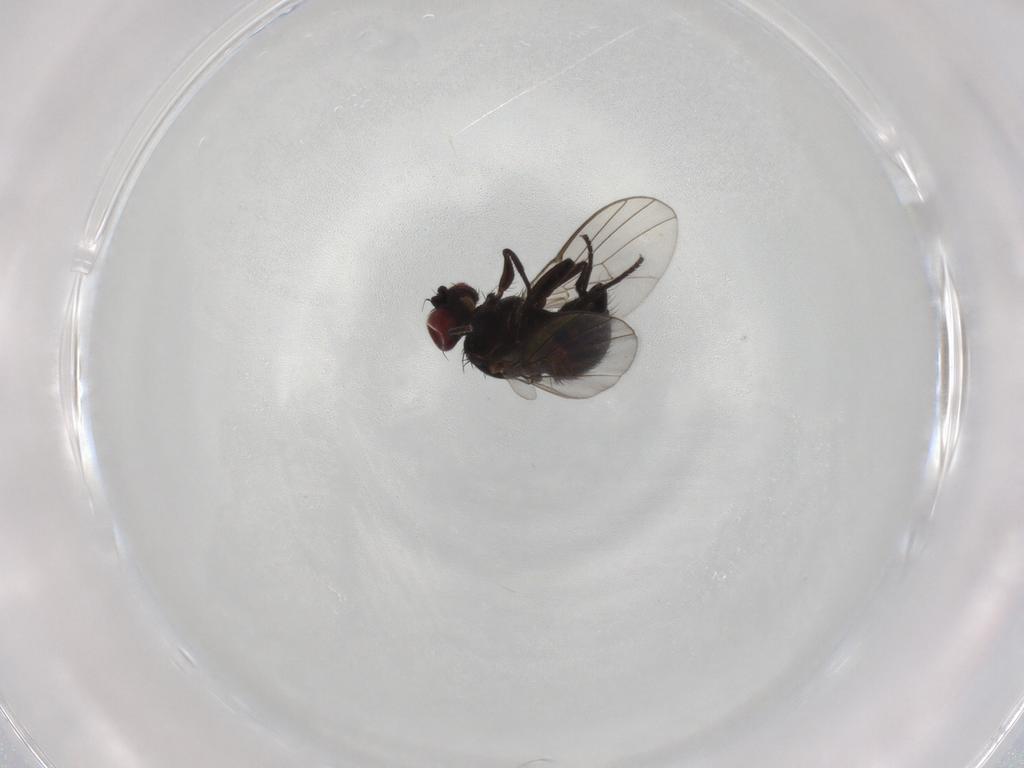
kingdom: Animalia
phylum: Arthropoda
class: Insecta
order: Diptera
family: Agromyzidae
